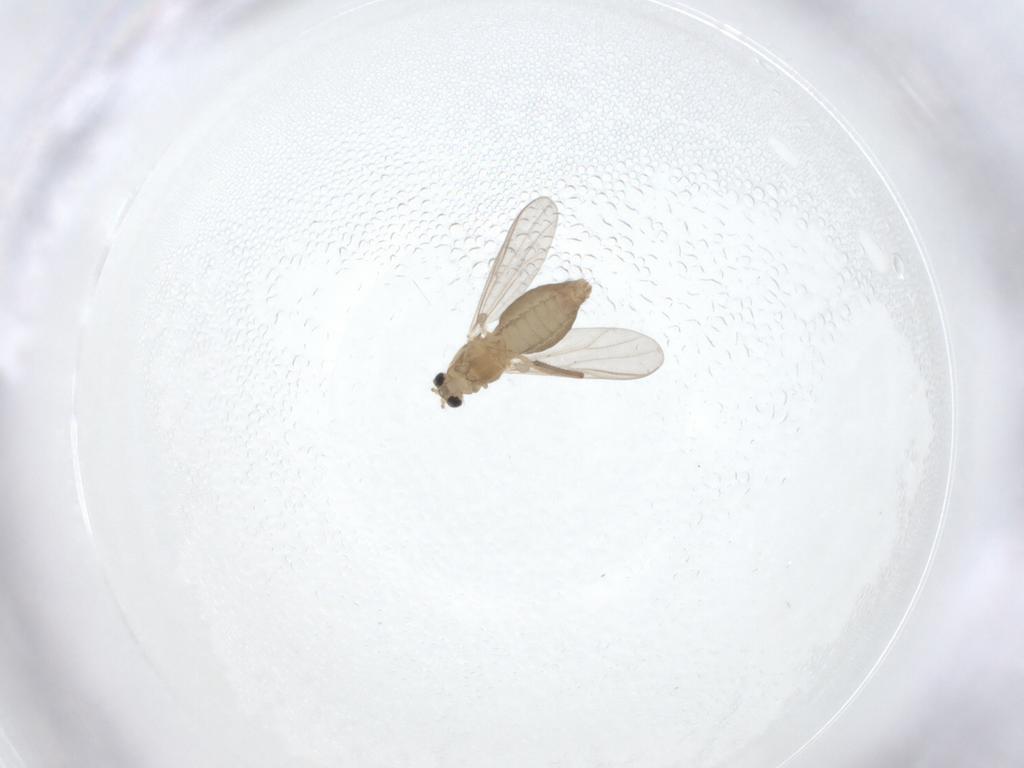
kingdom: Animalia
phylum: Arthropoda
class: Insecta
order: Diptera
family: Chironomidae
